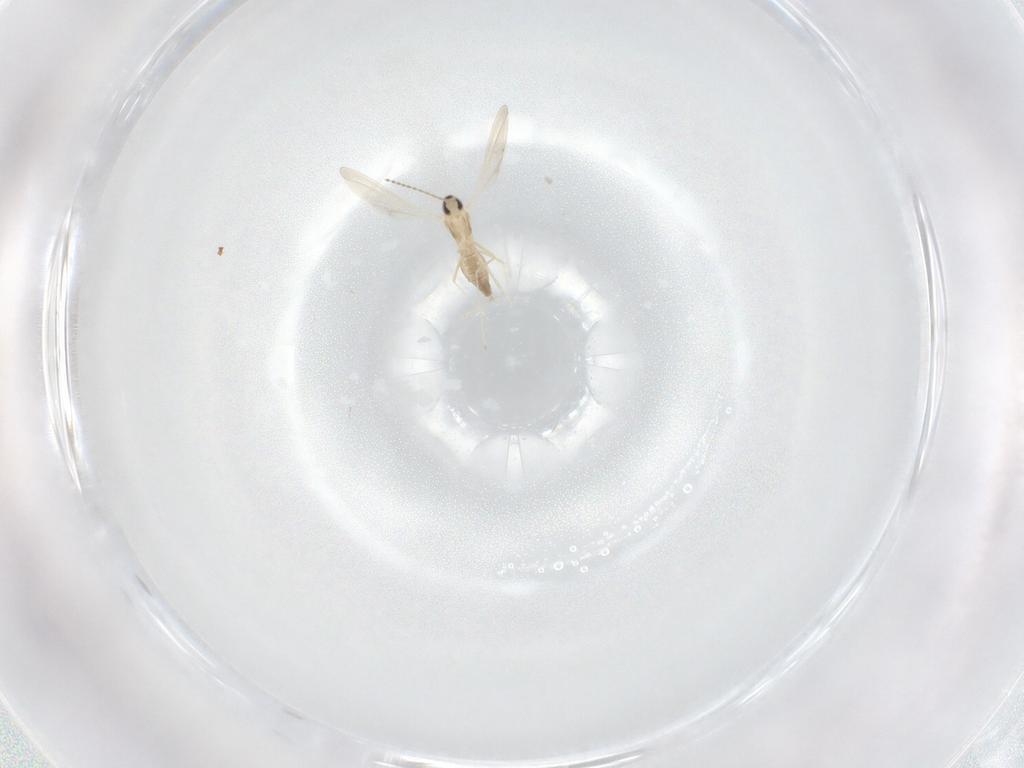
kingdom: Animalia
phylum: Arthropoda
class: Insecta
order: Diptera
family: Cecidomyiidae
